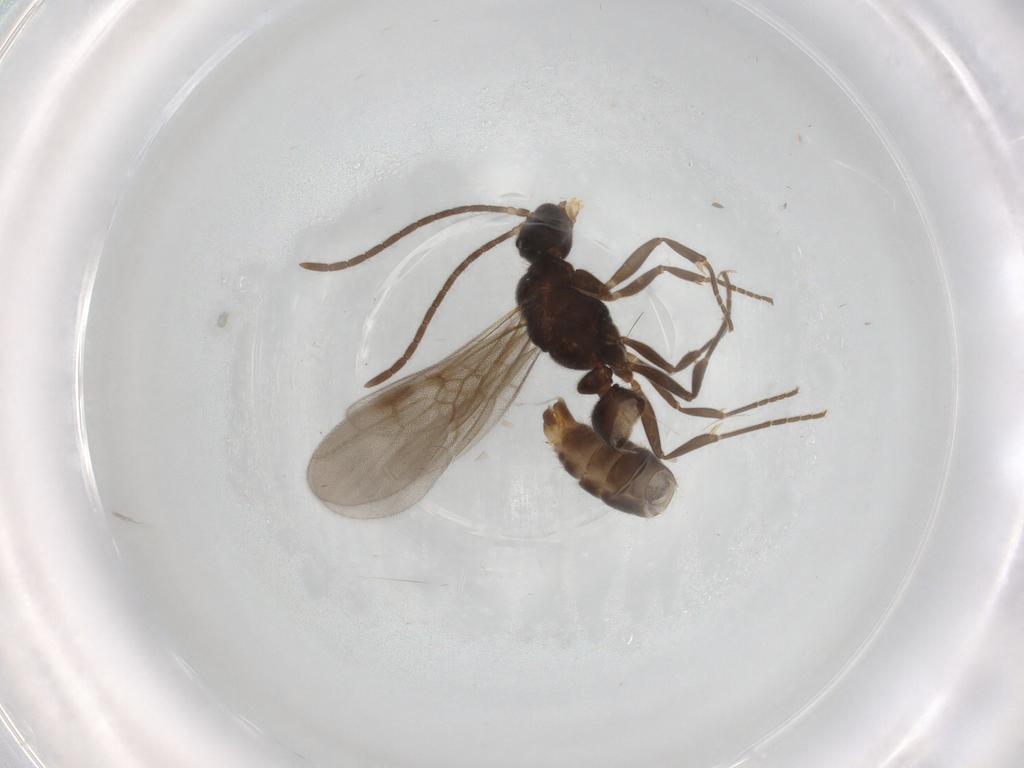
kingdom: Animalia
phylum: Arthropoda
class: Insecta
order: Hymenoptera
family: Formicidae
